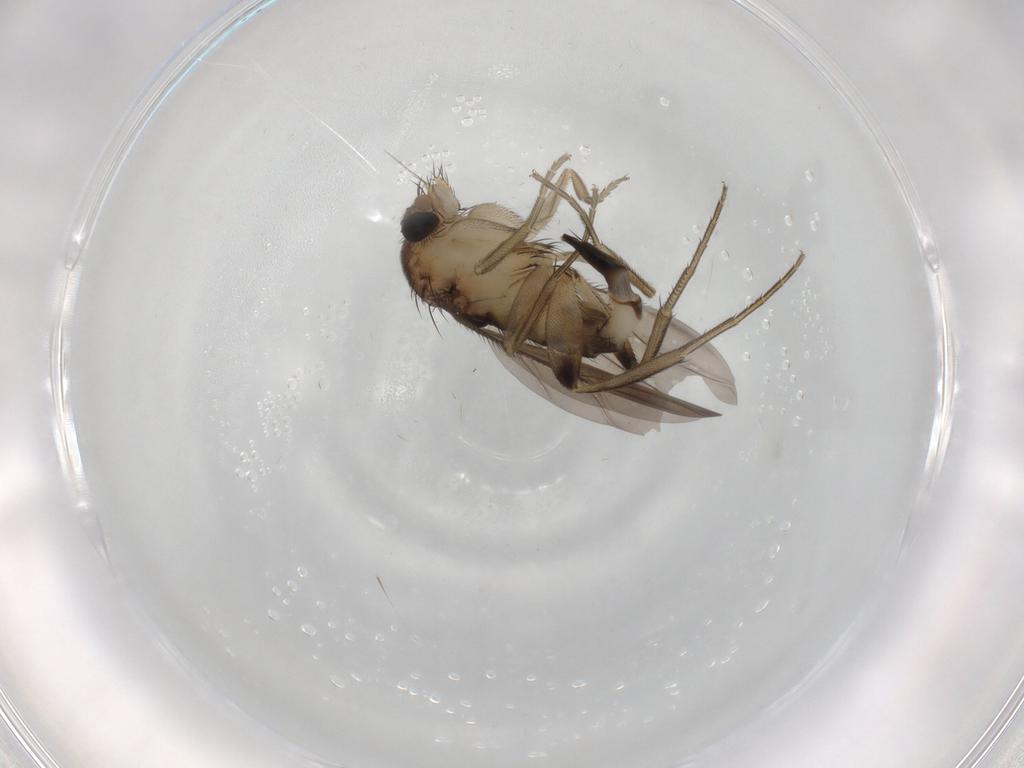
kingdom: Animalia
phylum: Arthropoda
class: Insecta
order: Diptera
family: Phoridae
